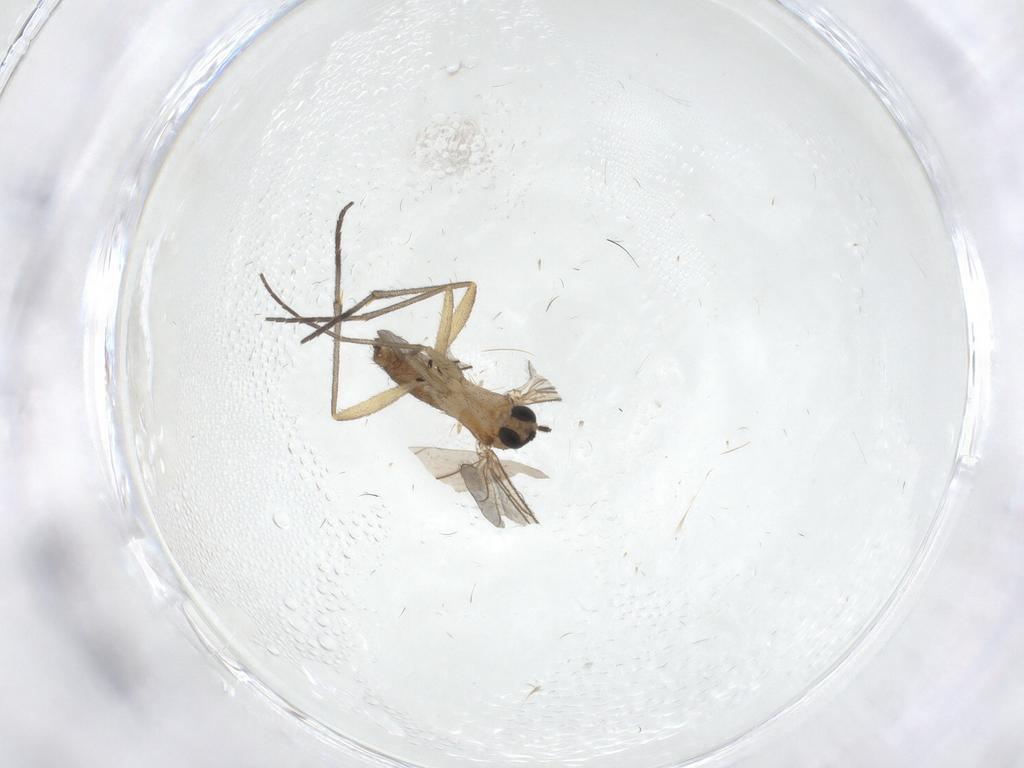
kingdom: Animalia
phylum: Arthropoda
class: Insecta
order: Diptera
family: Sciaridae
